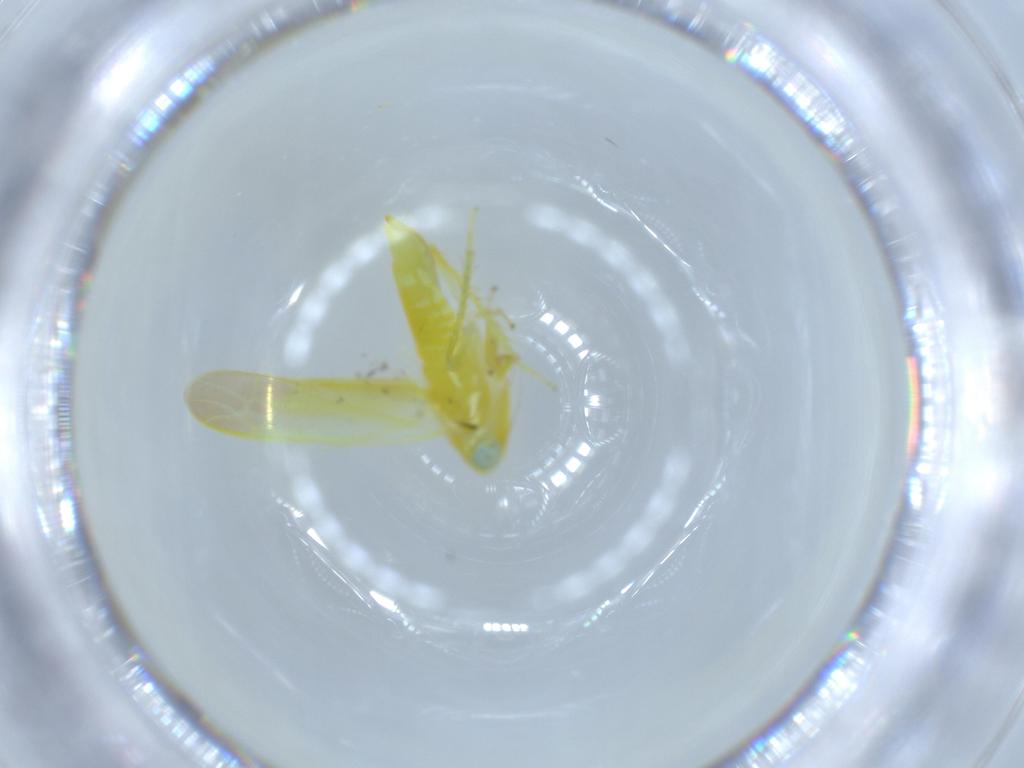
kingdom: Animalia
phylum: Arthropoda
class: Insecta
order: Hemiptera
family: Cicadellidae
